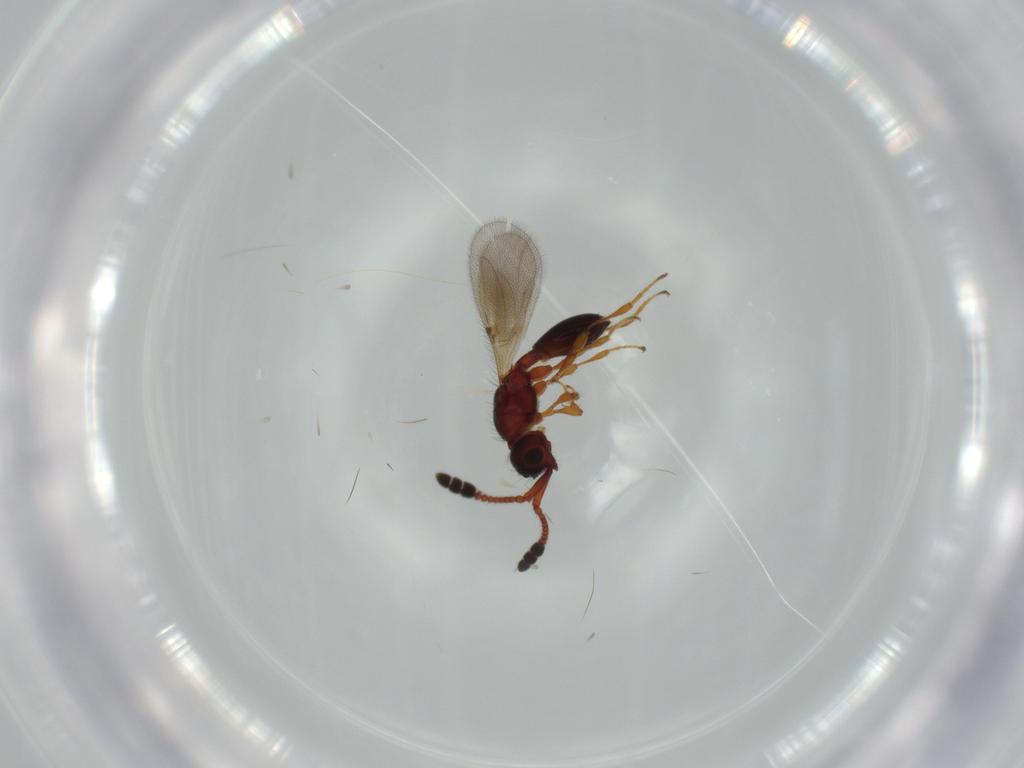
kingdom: Animalia
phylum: Arthropoda
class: Insecta
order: Hymenoptera
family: Diapriidae
